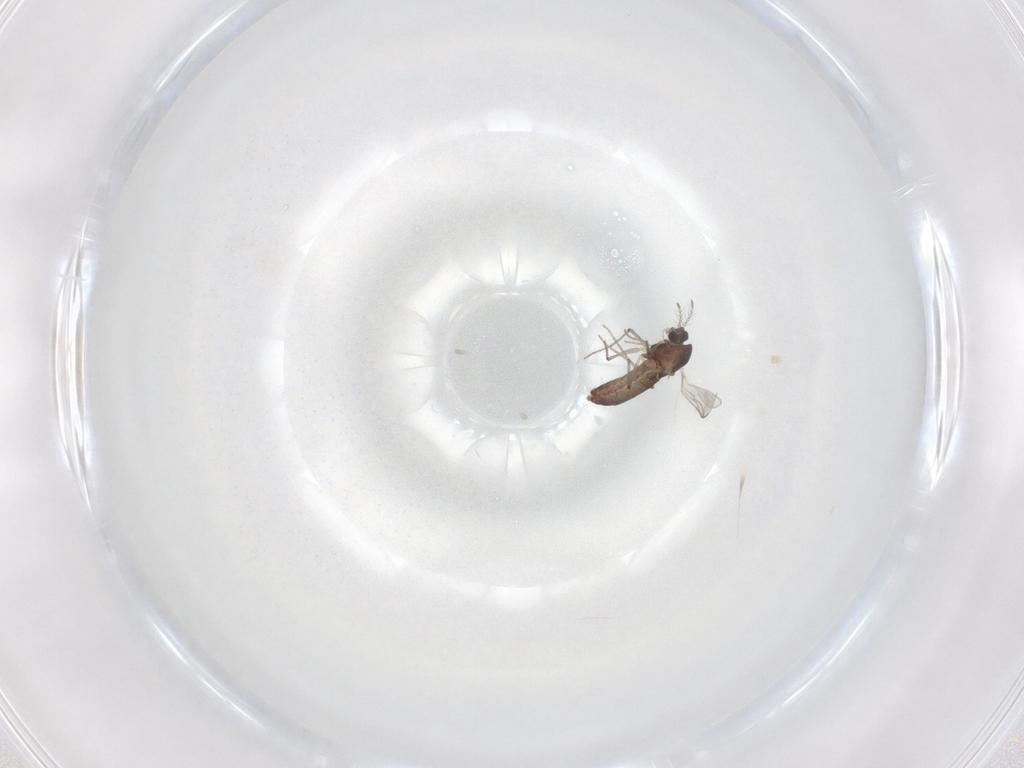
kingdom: Animalia
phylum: Arthropoda
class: Insecta
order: Diptera
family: Chironomidae
